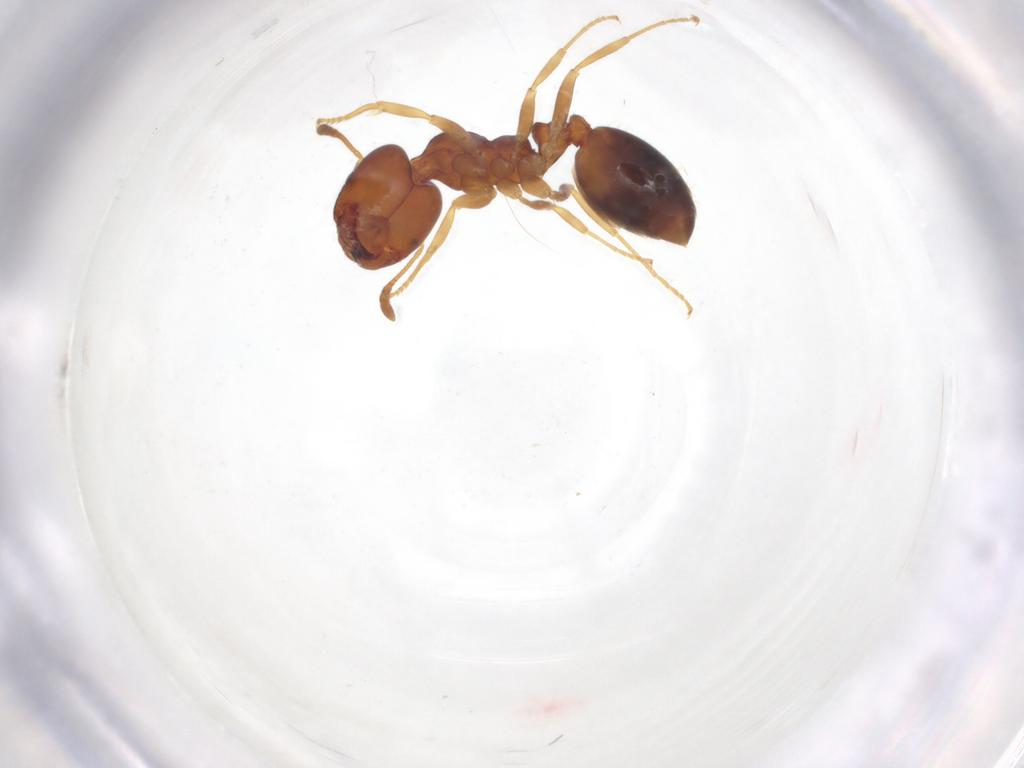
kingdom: Animalia
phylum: Arthropoda
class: Insecta
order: Hymenoptera
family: Formicidae
